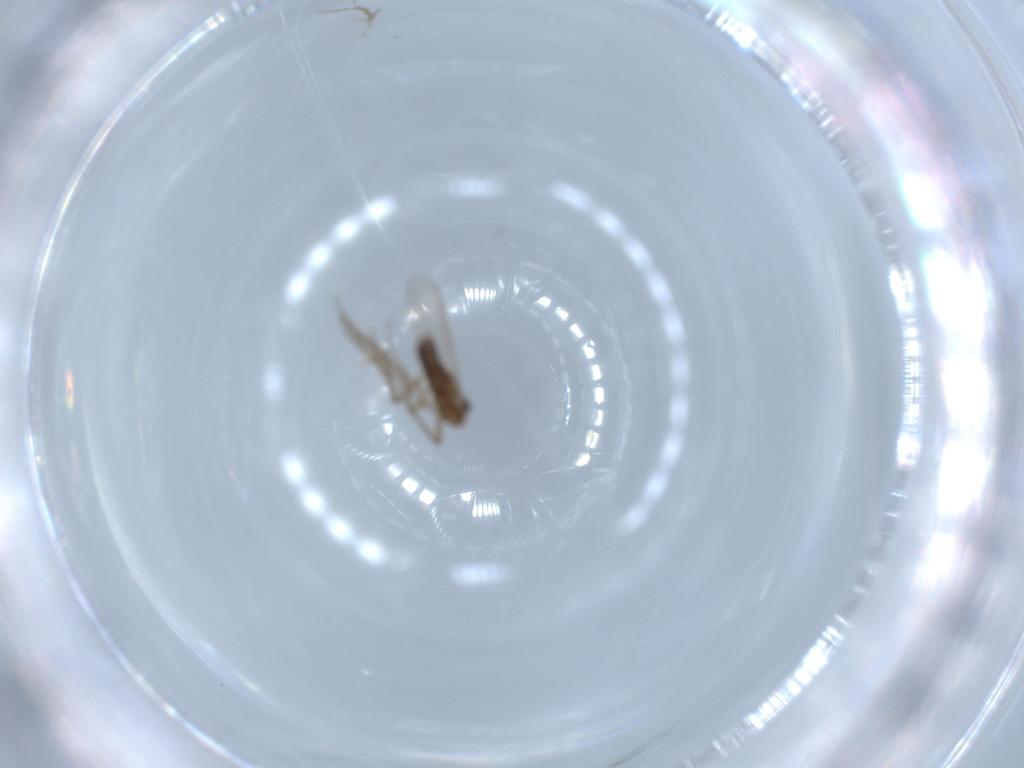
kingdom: Animalia
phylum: Arthropoda
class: Insecta
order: Diptera
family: Chironomidae
